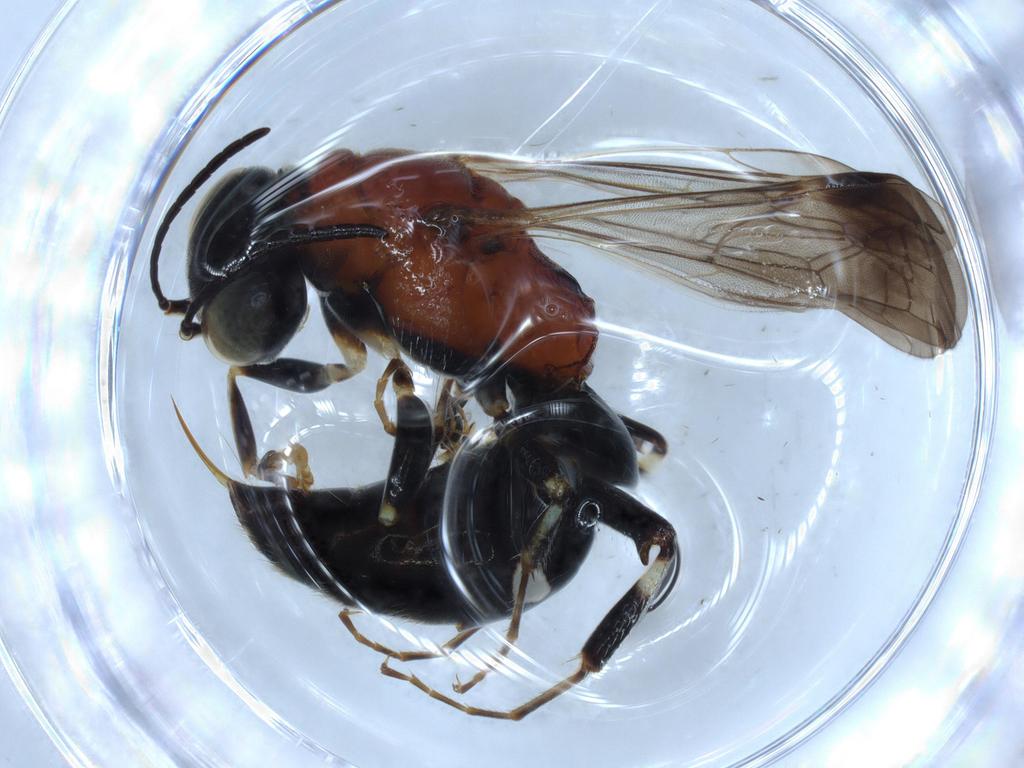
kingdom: Animalia
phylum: Arthropoda
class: Insecta
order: Hymenoptera
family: Bembicidae
